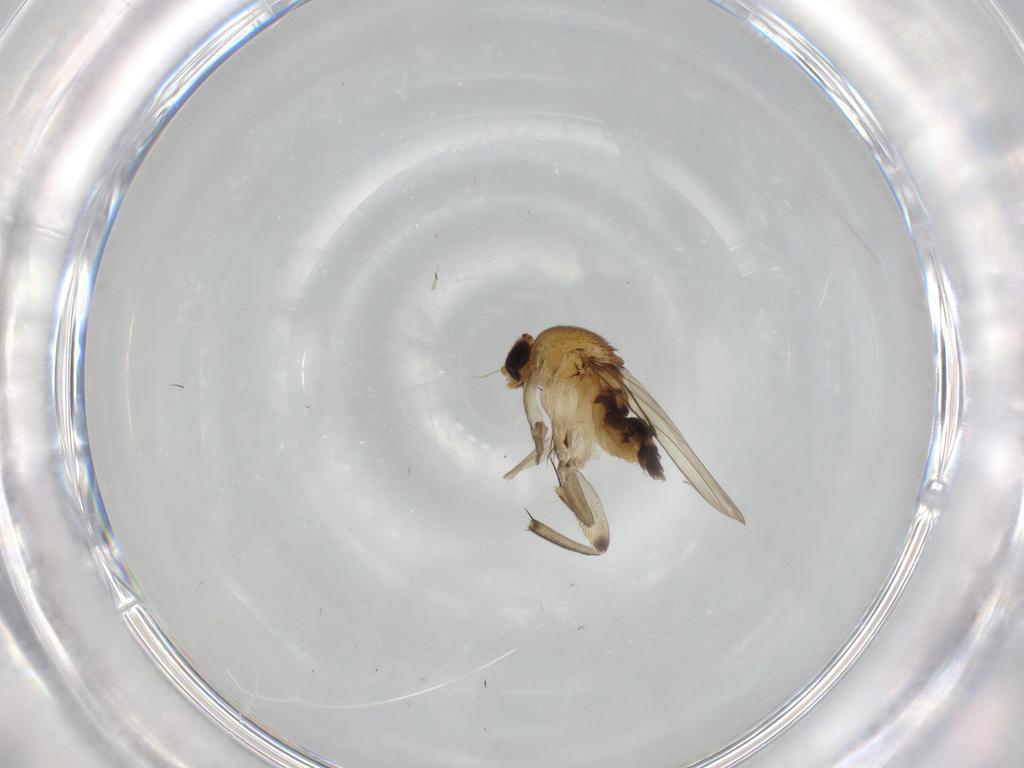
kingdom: Animalia
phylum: Arthropoda
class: Insecta
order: Diptera
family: Phoridae
